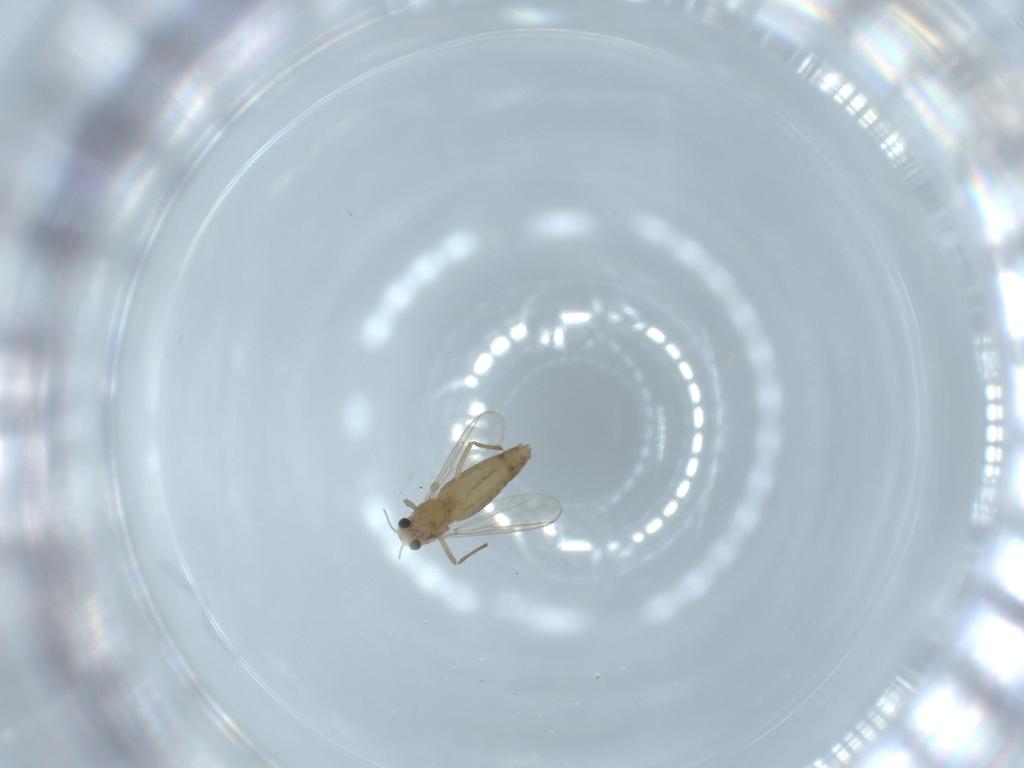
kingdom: Animalia
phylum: Arthropoda
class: Insecta
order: Diptera
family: Chironomidae
